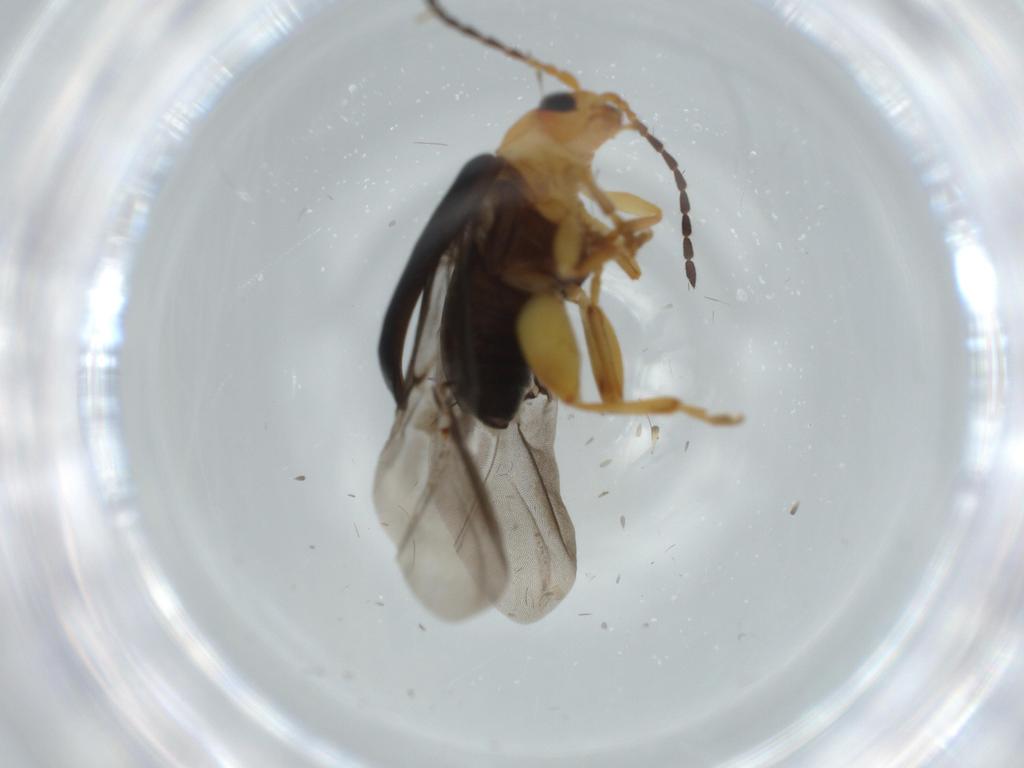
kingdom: Animalia
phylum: Arthropoda
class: Insecta
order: Coleoptera
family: Chrysomelidae
